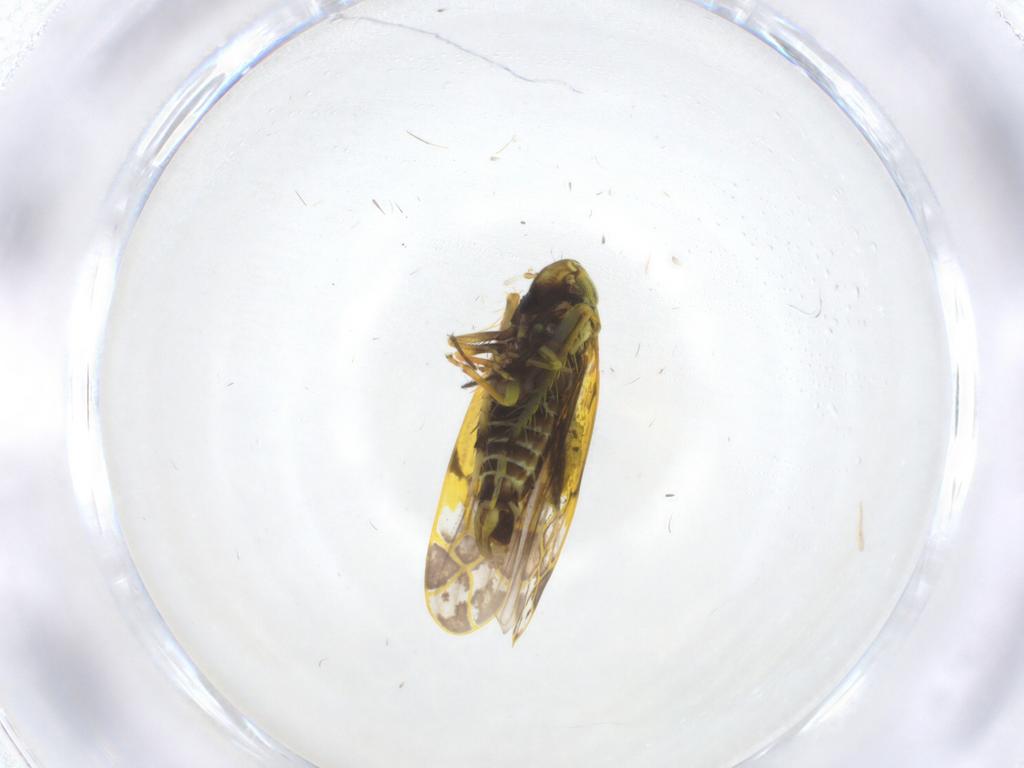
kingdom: Animalia
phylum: Arthropoda
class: Insecta
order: Hemiptera
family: Cicadellidae
